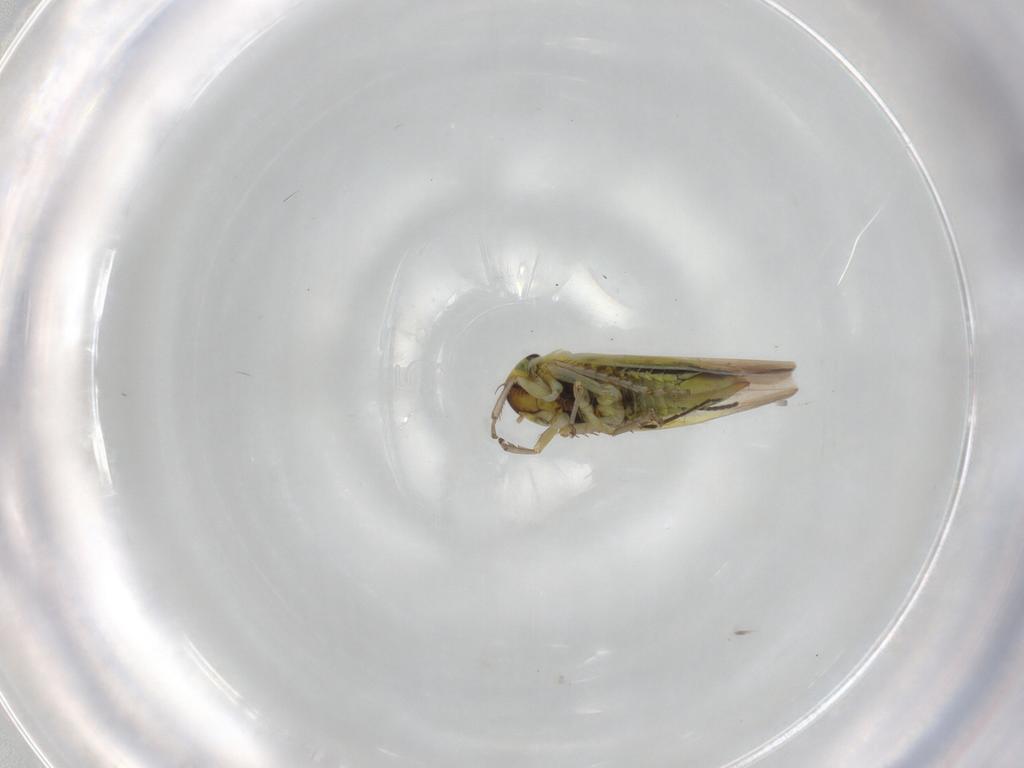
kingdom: Animalia
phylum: Arthropoda
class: Insecta
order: Hemiptera
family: Cicadellidae
